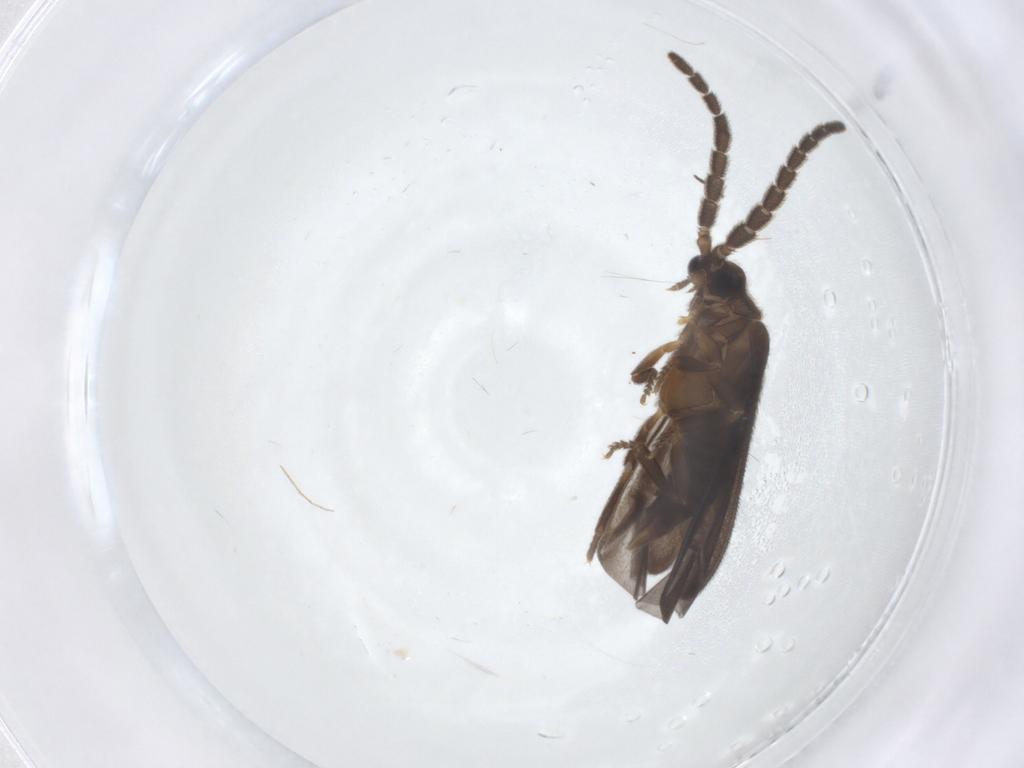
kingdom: Animalia
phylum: Arthropoda
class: Insecta
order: Coleoptera
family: Lycidae
